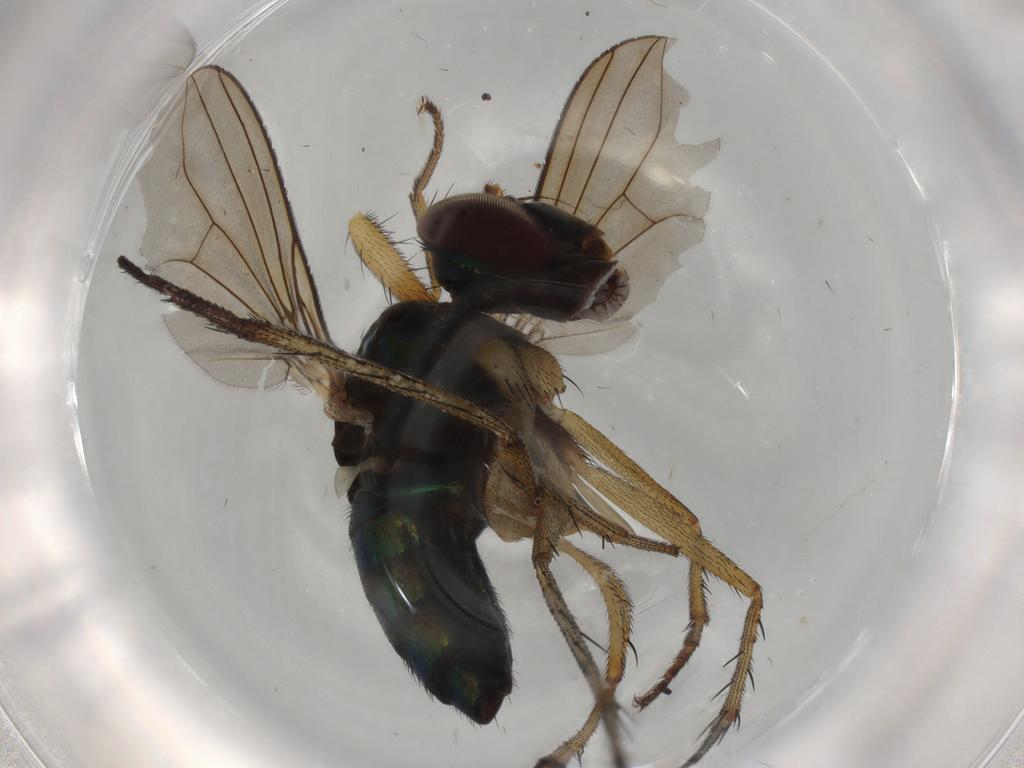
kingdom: Animalia
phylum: Arthropoda
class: Insecta
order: Diptera
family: Dolichopodidae
